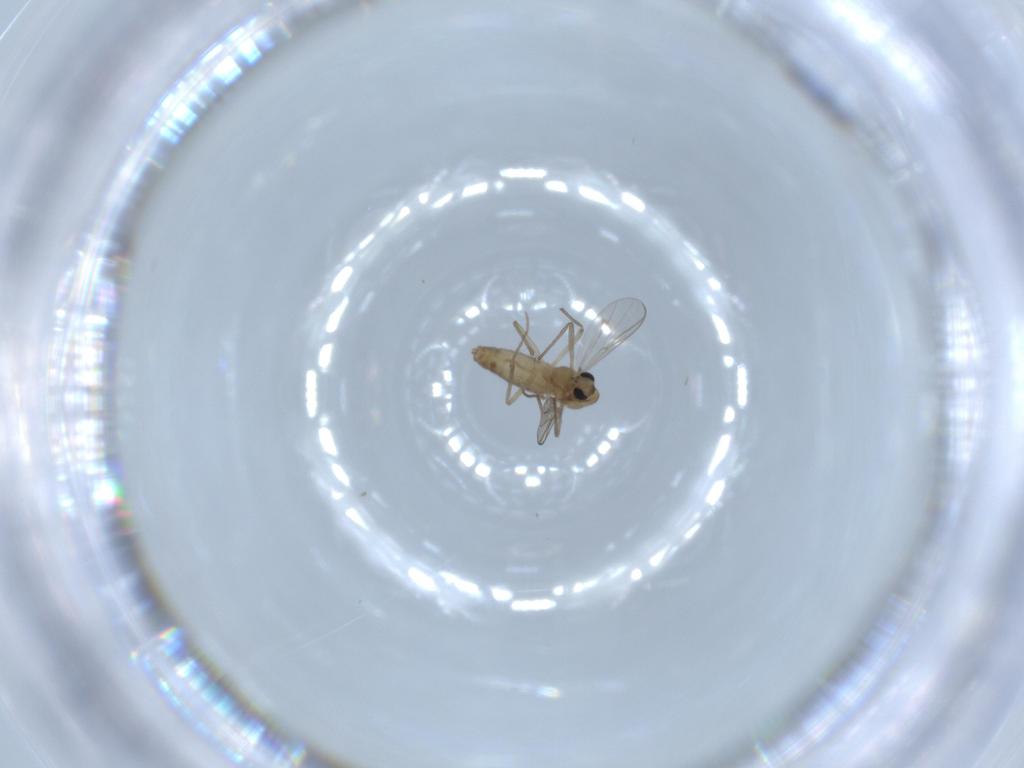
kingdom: Animalia
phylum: Arthropoda
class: Insecta
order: Diptera
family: Chironomidae
